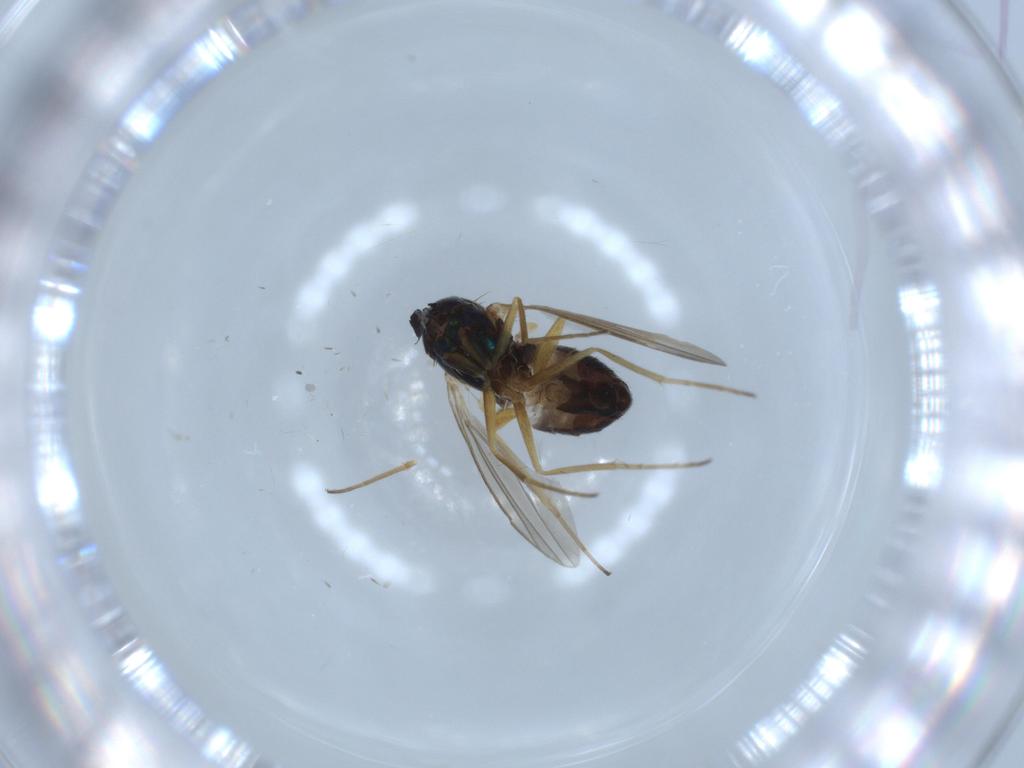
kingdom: Animalia
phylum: Arthropoda
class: Insecta
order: Diptera
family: Dolichopodidae
